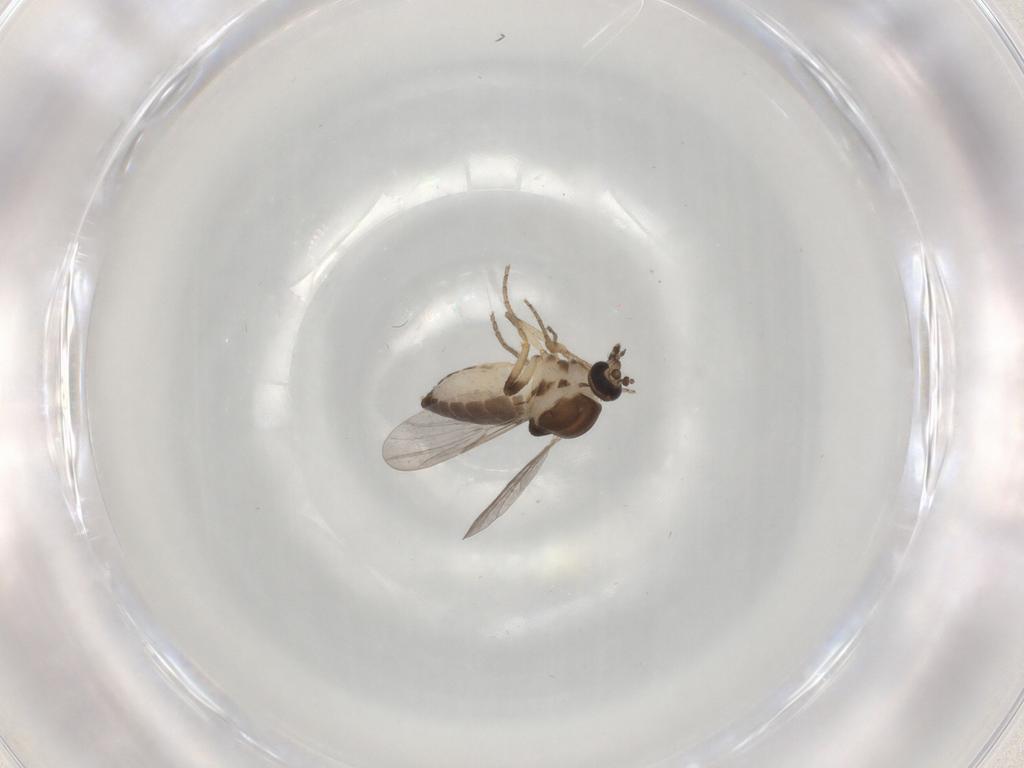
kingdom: Animalia
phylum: Arthropoda
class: Insecta
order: Diptera
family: Ceratopogonidae
